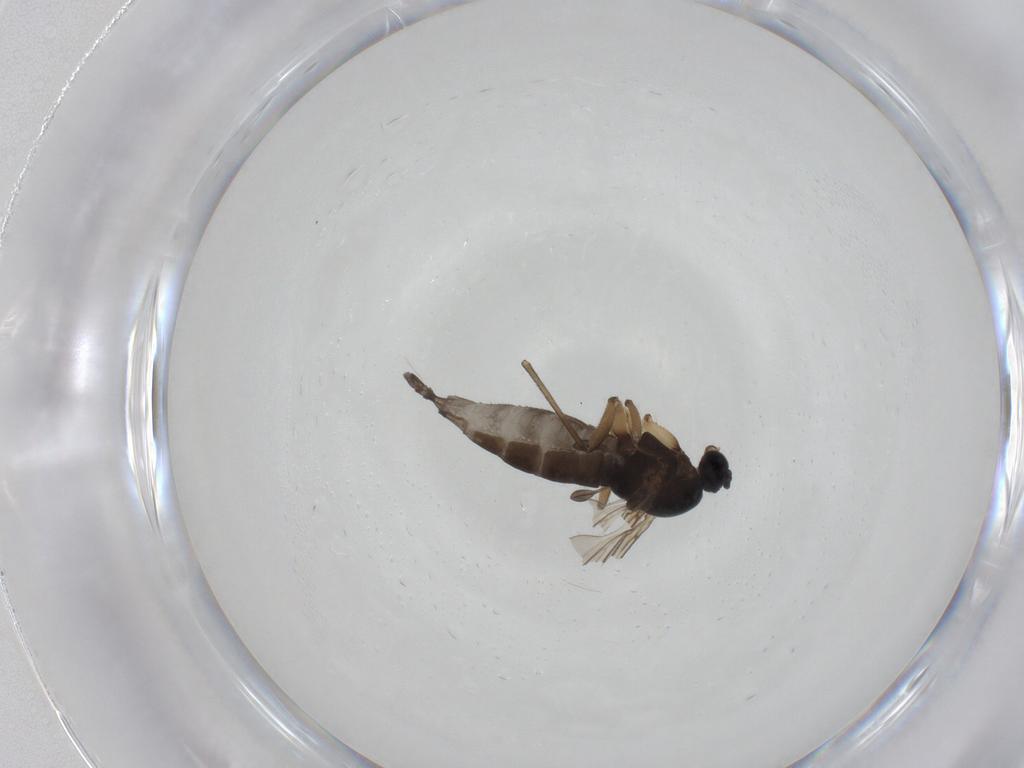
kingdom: Animalia
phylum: Arthropoda
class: Insecta
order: Diptera
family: Sciaridae
